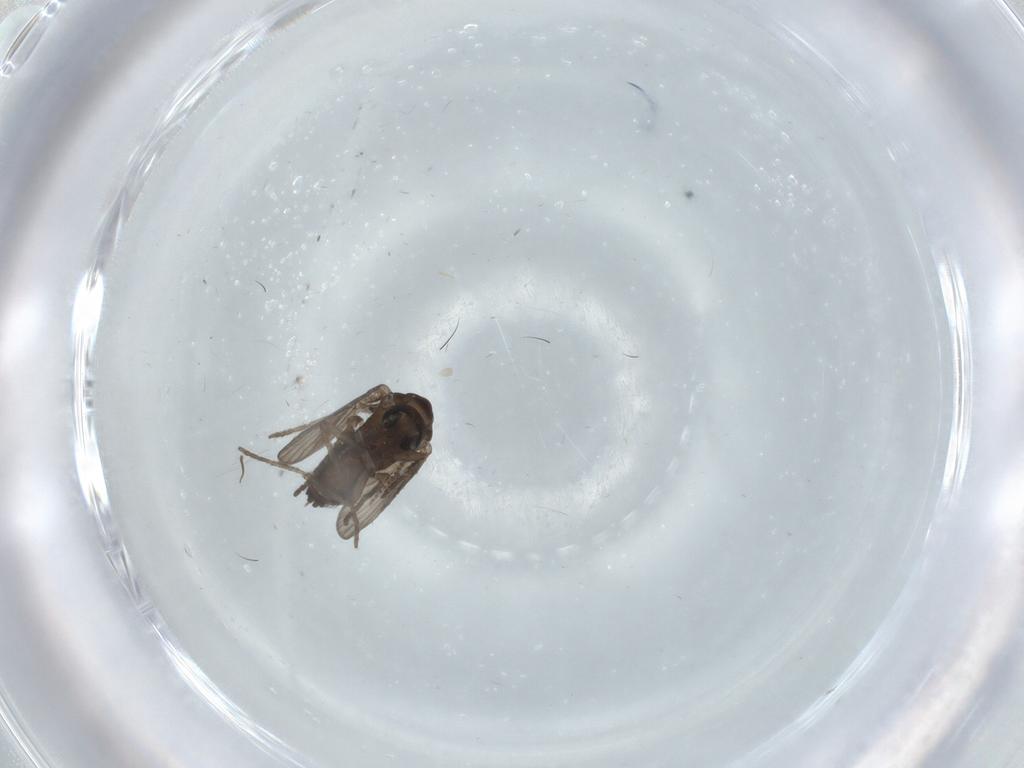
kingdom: Animalia
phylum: Arthropoda
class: Insecta
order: Diptera
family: Psychodidae
